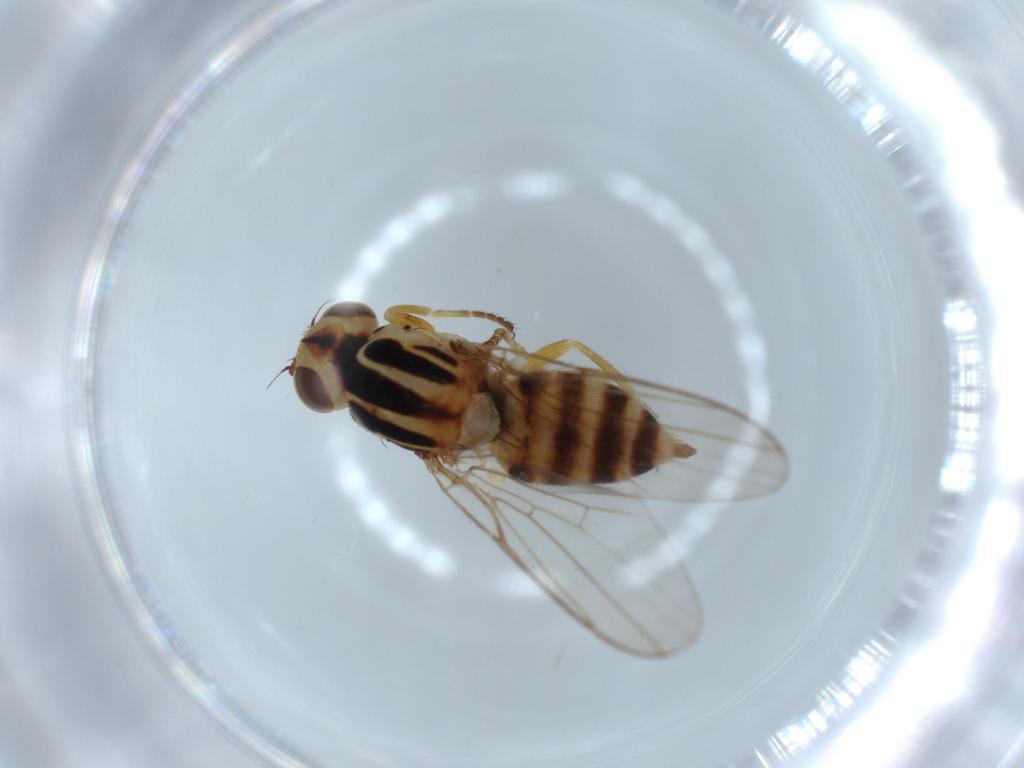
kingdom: Animalia
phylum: Arthropoda
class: Insecta
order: Diptera
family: Chloropidae
